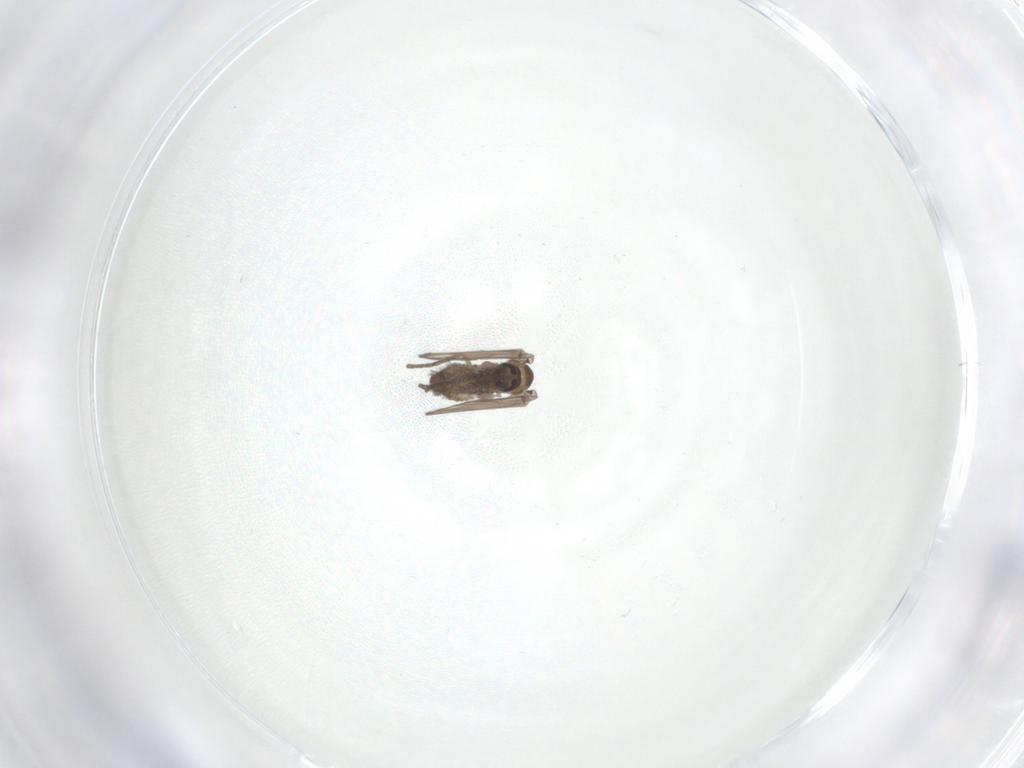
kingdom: Animalia
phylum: Arthropoda
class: Insecta
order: Diptera
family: Psychodidae
